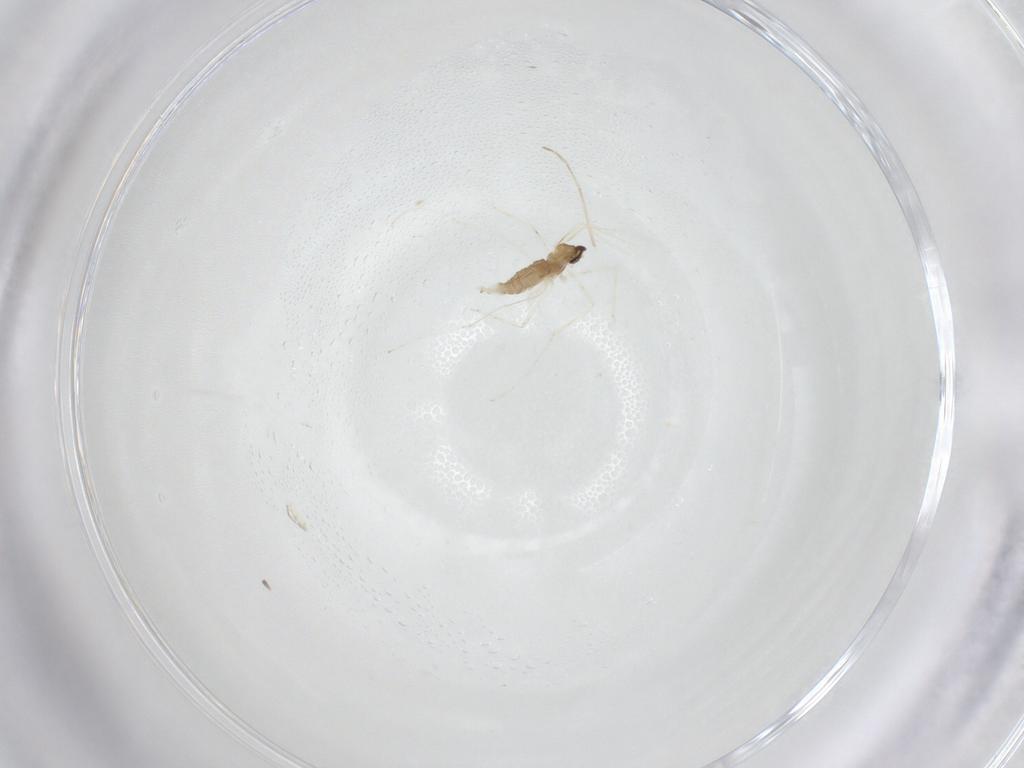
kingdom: Animalia
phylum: Arthropoda
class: Insecta
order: Diptera
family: Cecidomyiidae
